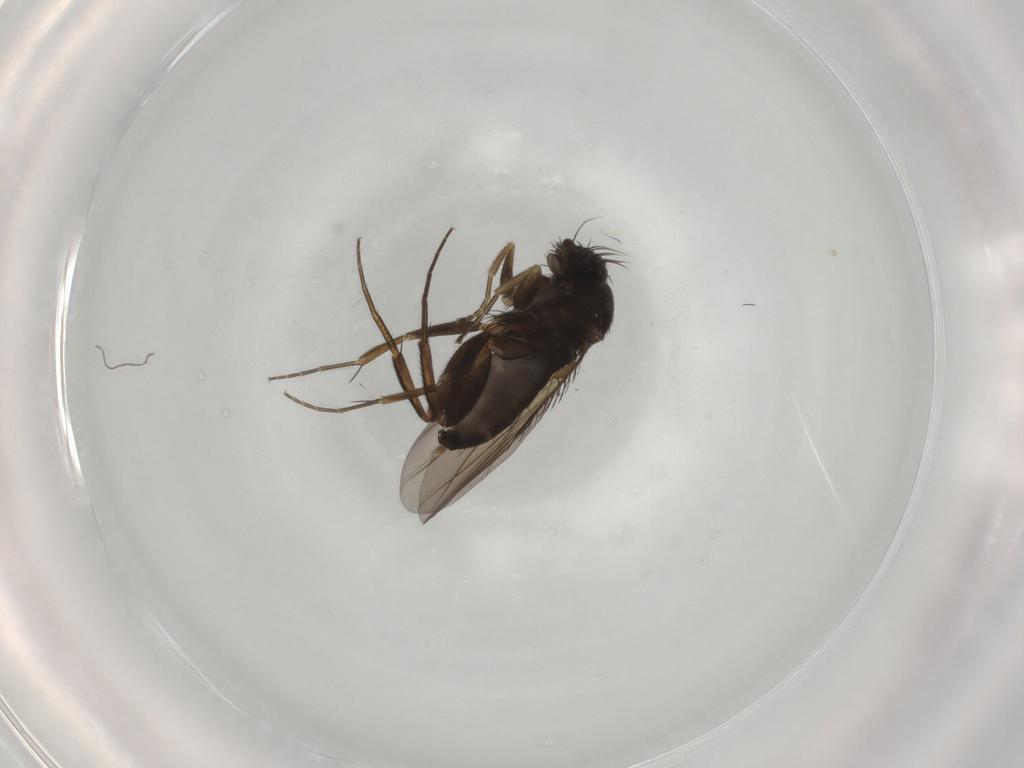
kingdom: Animalia
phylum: Arthropoda
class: Insecta
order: Diptera
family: Phoridae
